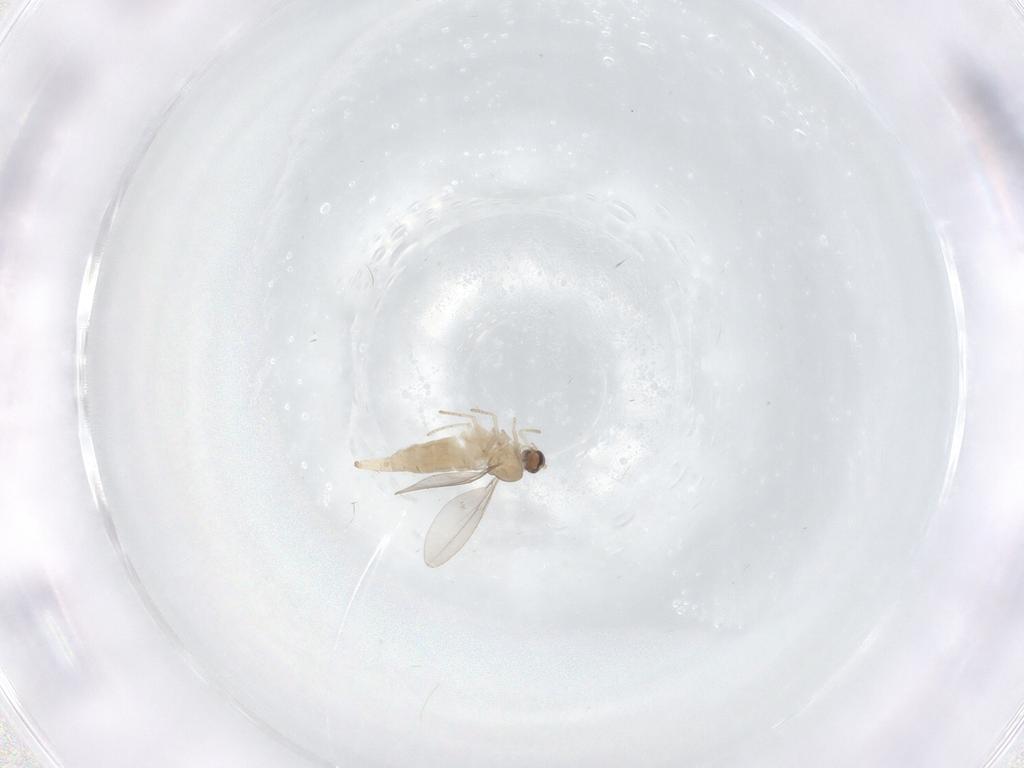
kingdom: Animalia
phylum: Arthropoda
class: Insecta
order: Diptera
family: Cecidomyiidae
